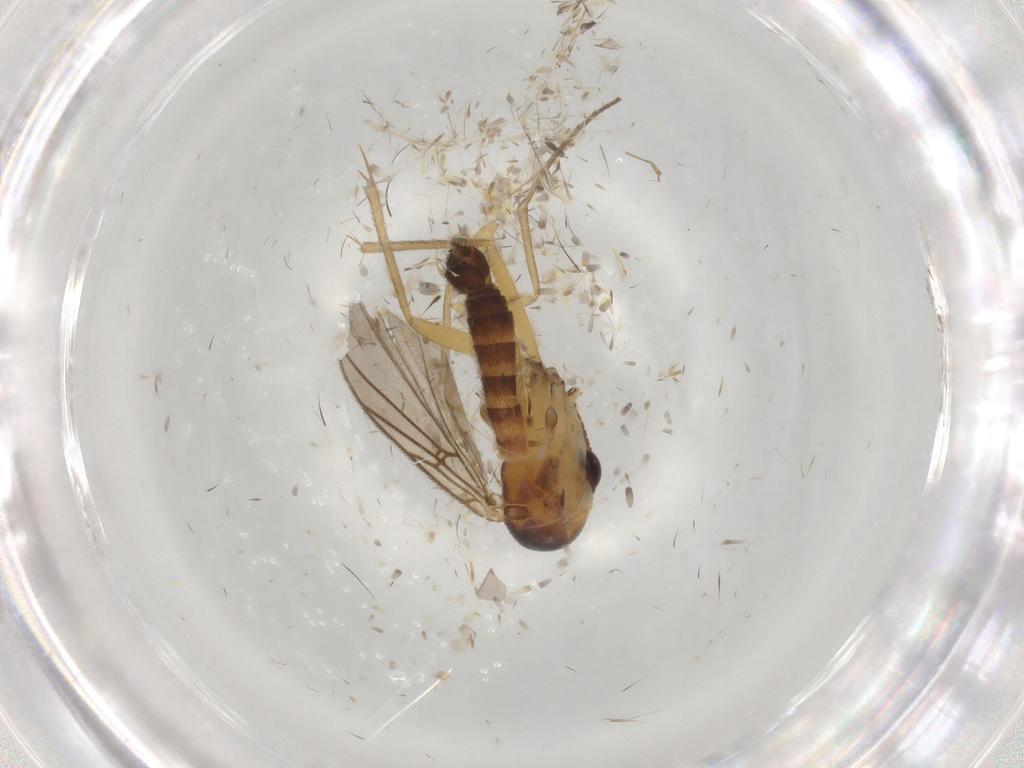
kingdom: Animalia
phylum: Arthropoda
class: Insecta
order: Diptera
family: Mycetophilidae
